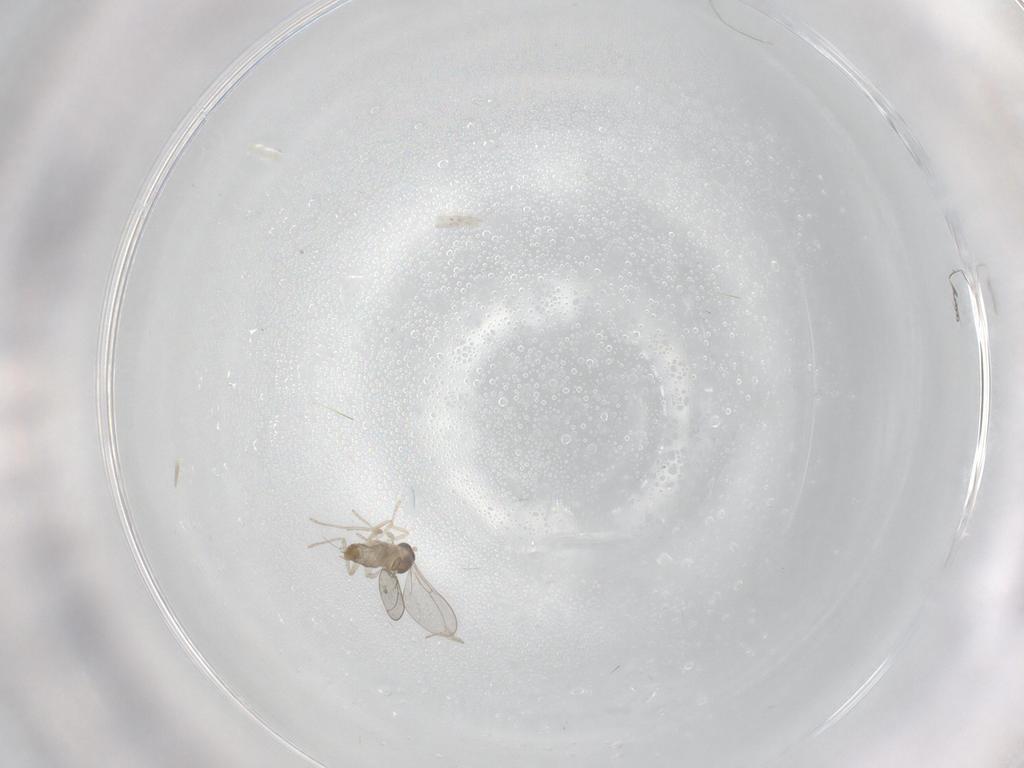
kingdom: Animalia
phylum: Arthropoda
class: Insecta
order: Diptera
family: Cecidomyiidae
